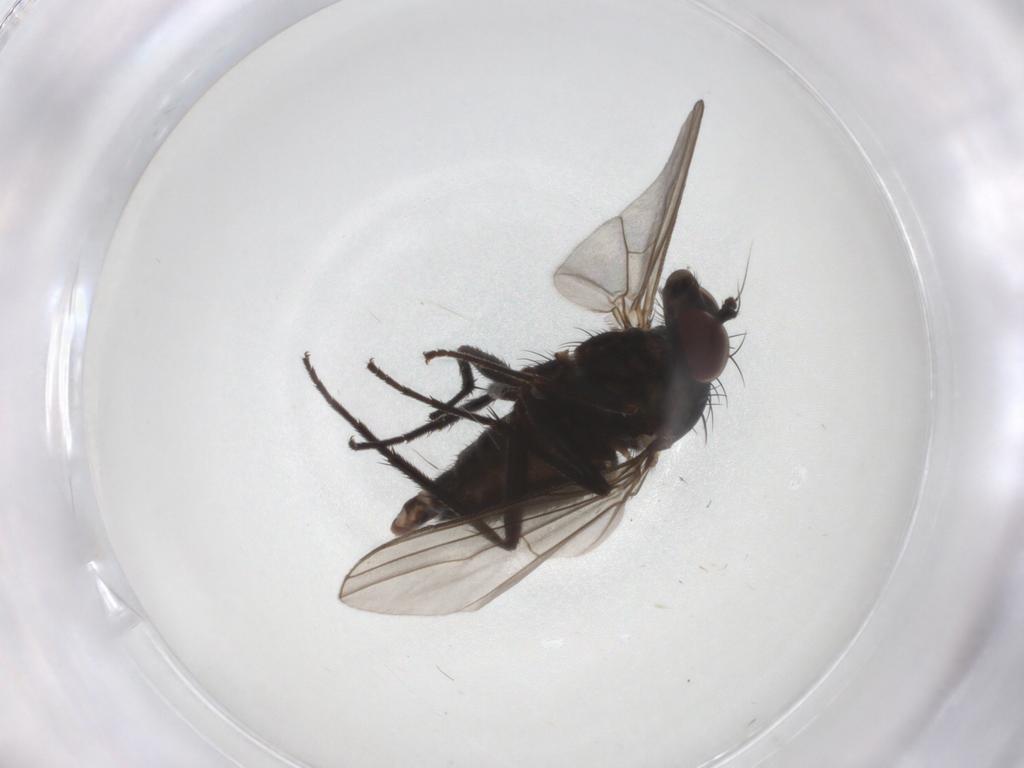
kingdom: Animalia
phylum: Arthropoda
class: Insecta
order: Diptera
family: Dolichopodidae
